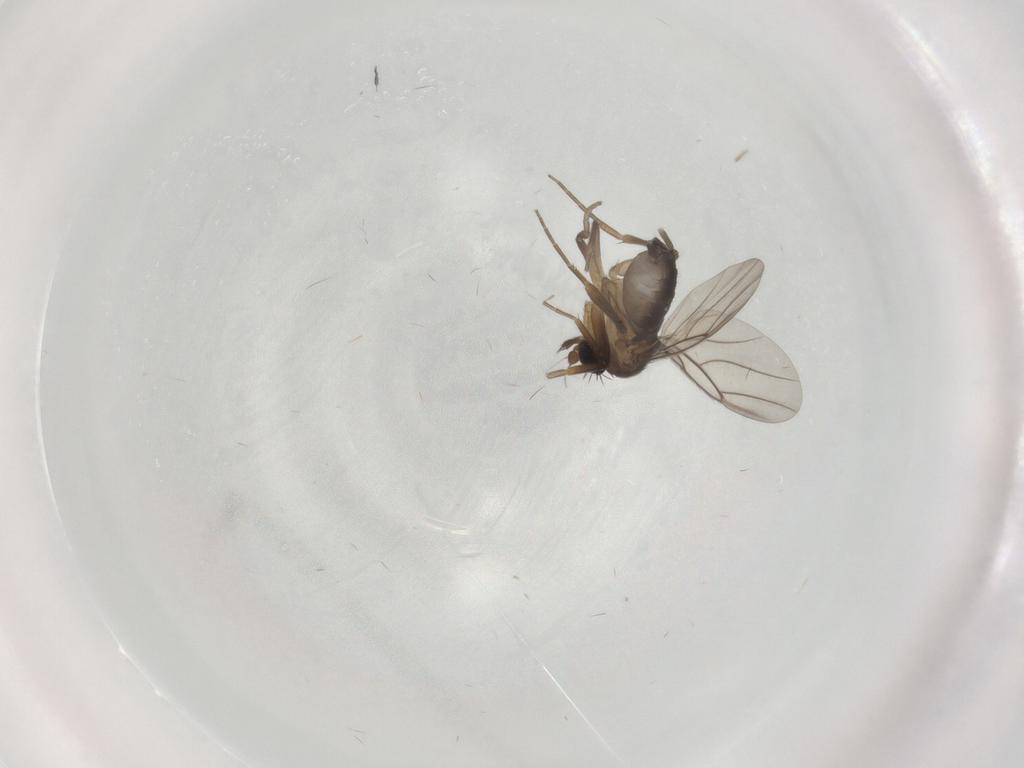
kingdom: Animalia
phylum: Arthropoda
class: Insecta
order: Diptera
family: Phoridae
